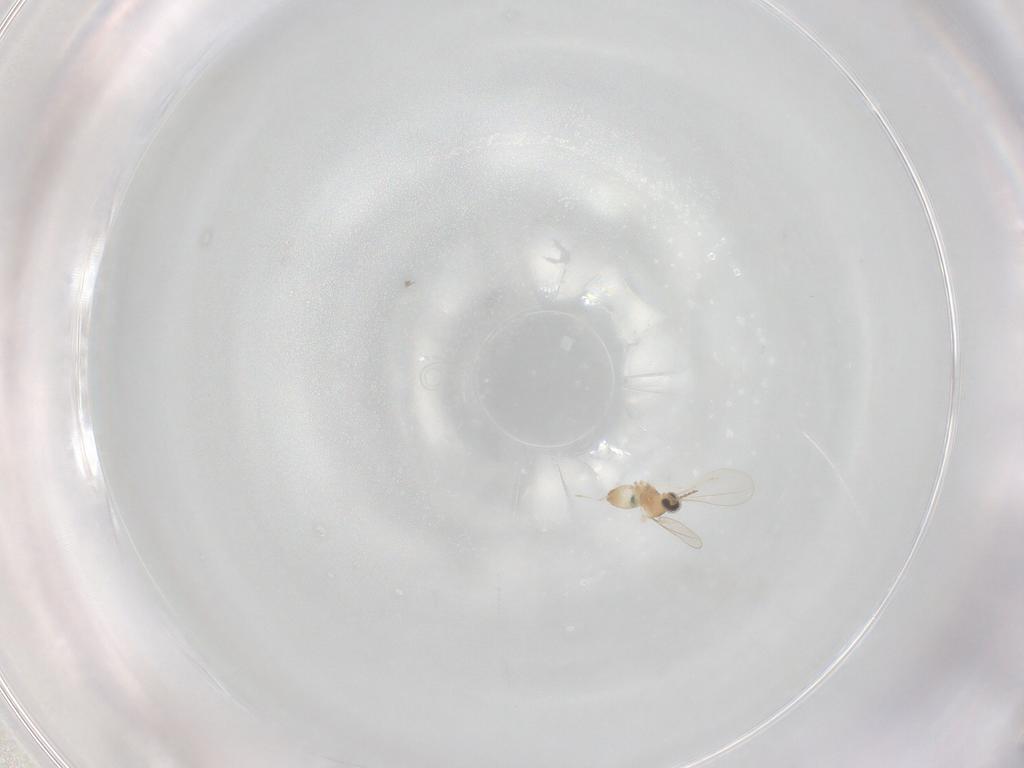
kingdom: Animalia
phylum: Arthropoda
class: Insecta
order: Diptera
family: Cecidomyiidae
